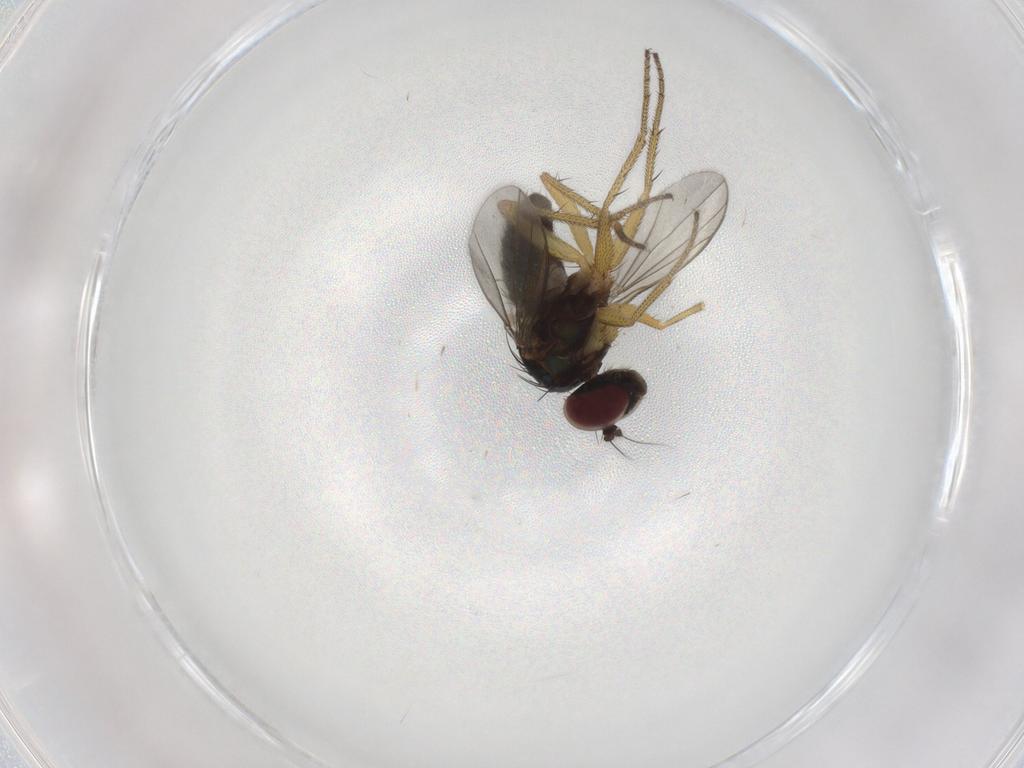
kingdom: Animalia
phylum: Arthropoda
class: Insecta
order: Diptera
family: Dolichopodidae
